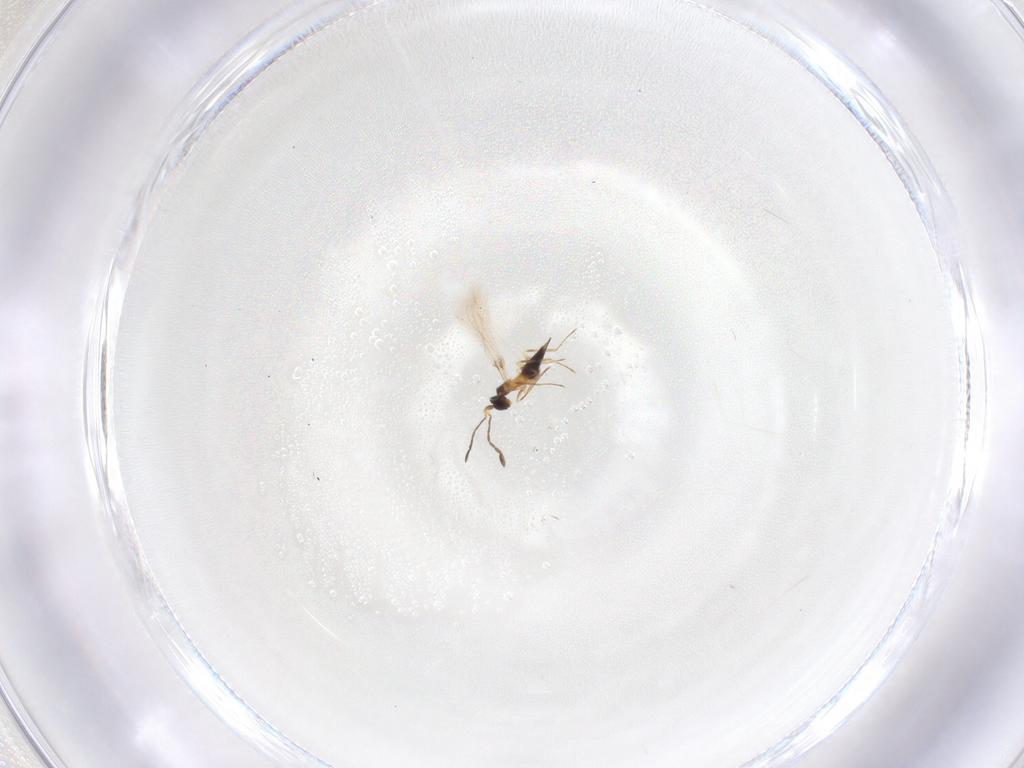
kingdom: Animalia
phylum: Arthropoda
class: Insecta
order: Hymenoptera
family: Mymaridae
